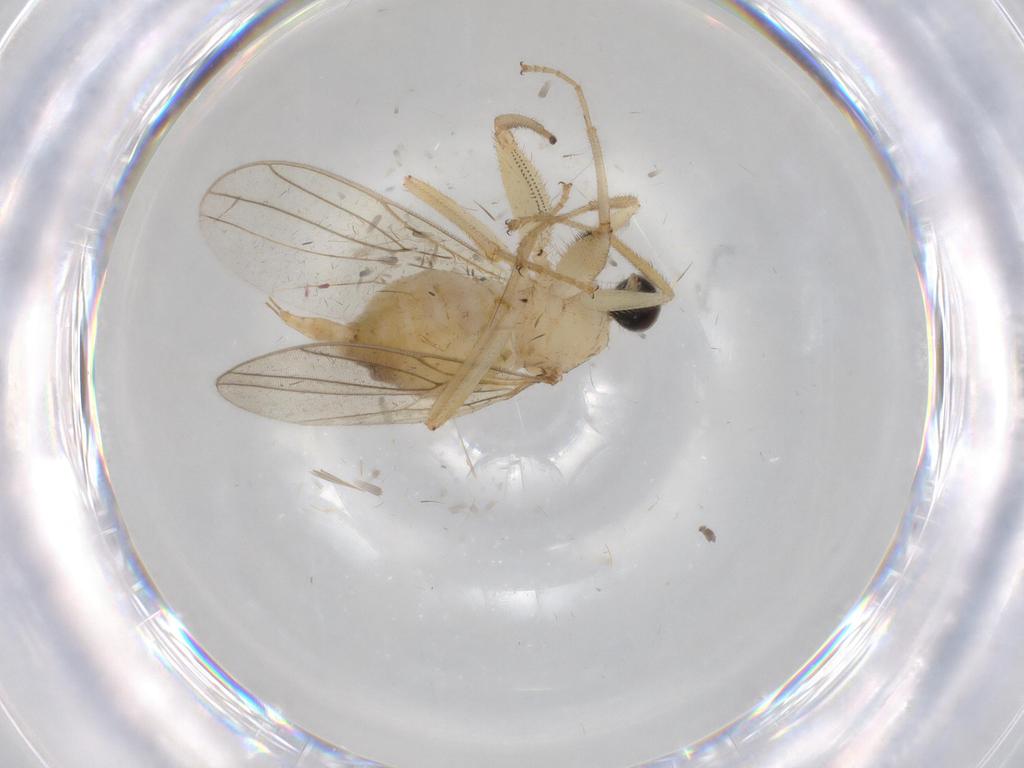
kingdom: Animalia
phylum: Arthropoda
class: Insecta
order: Diptera
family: Hybotidae
